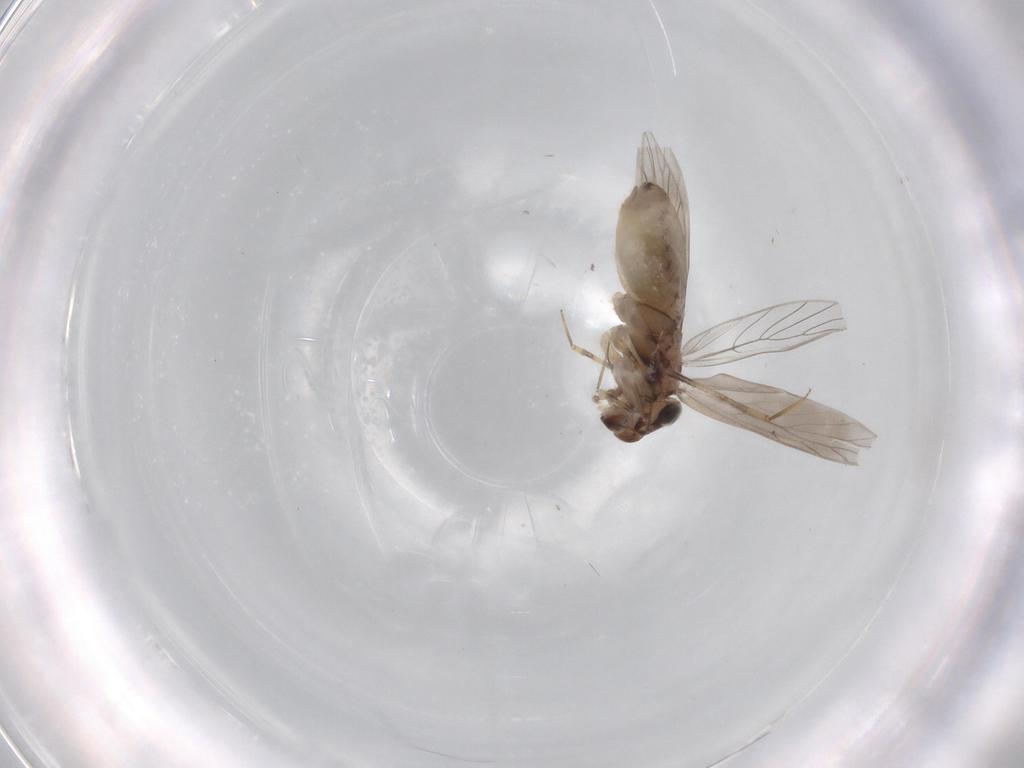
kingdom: Animalia
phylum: Arthropoda
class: Insecta
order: Psocodea
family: Lepidopsocidae
